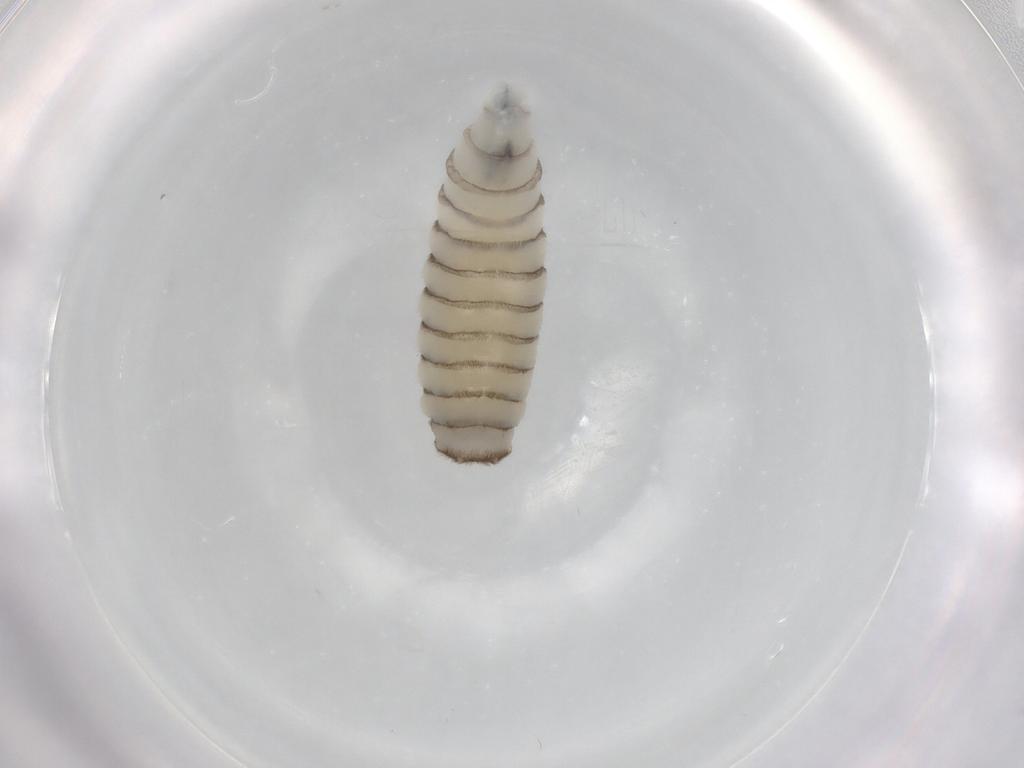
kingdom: Animalia
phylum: Arthropoda
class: Insecta
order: Diptera
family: Sarcophagidae
